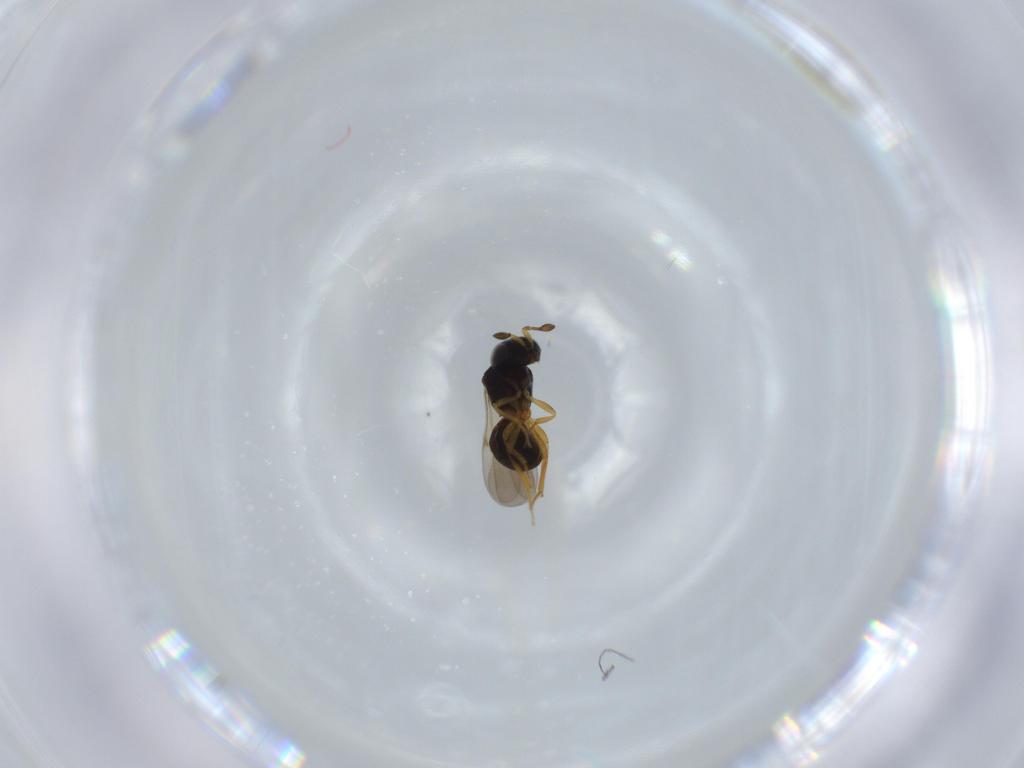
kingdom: Animalia
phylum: Arthropoda
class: Insecta
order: Hymenoptera
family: Scelionidae
